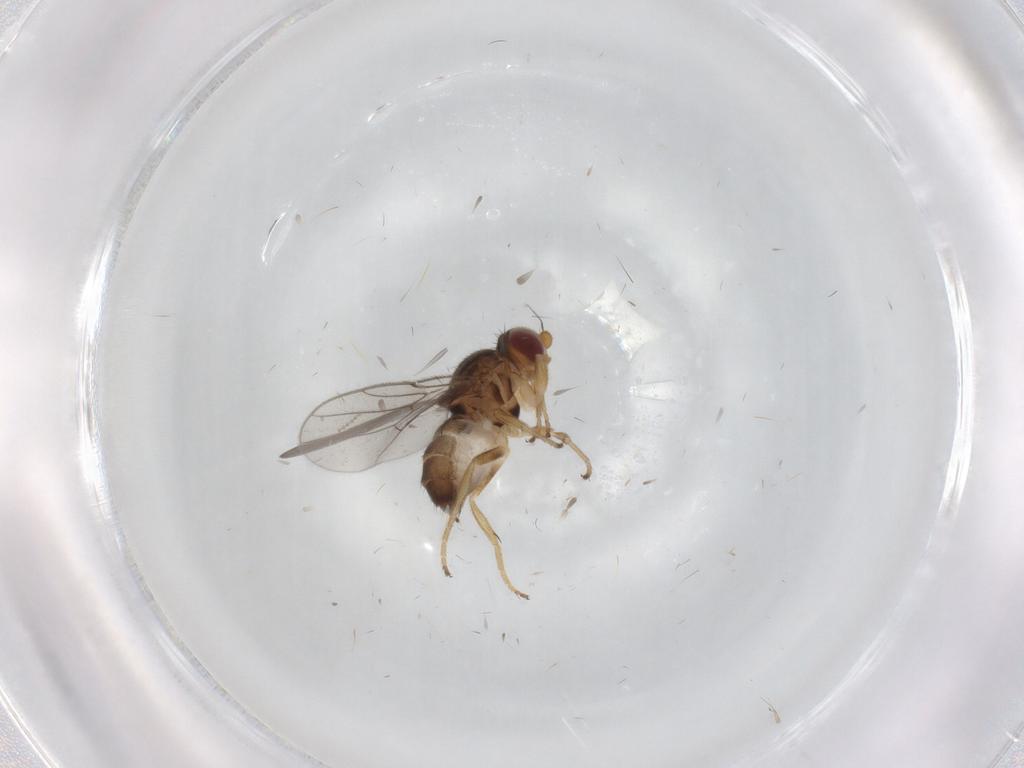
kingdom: Animalia
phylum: Arthropoda
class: Insecta
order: Diptera
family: Chloropidae
